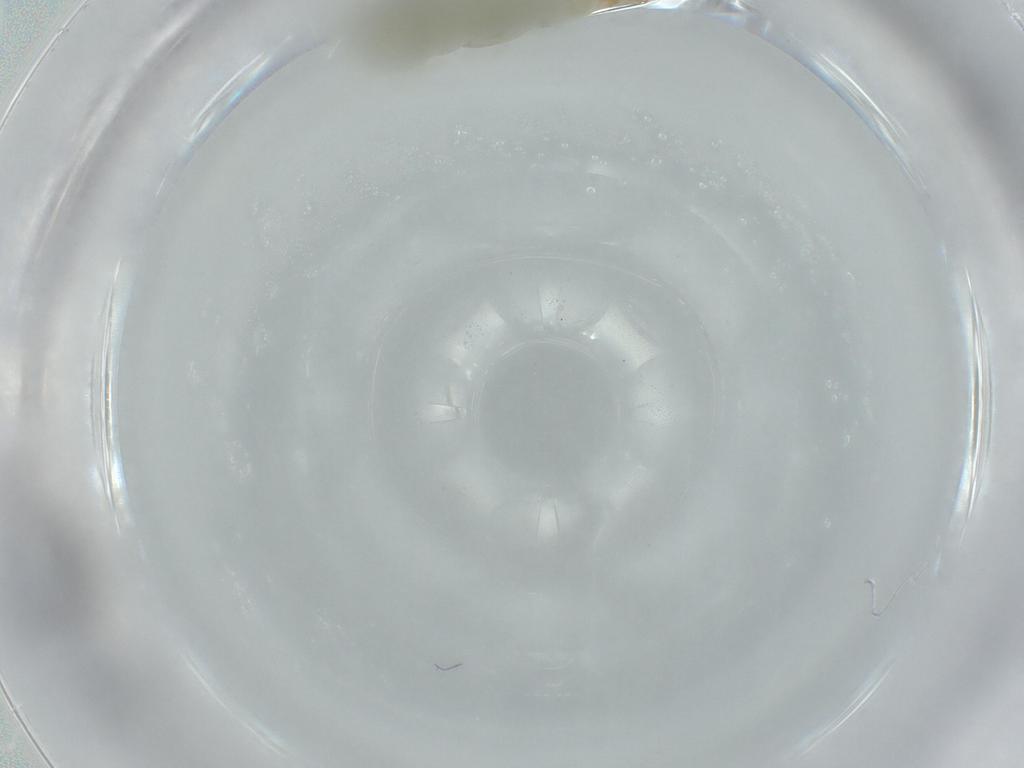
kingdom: Animalia
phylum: Arthropoda
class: Insecta
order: Diptera
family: Chironomidae
